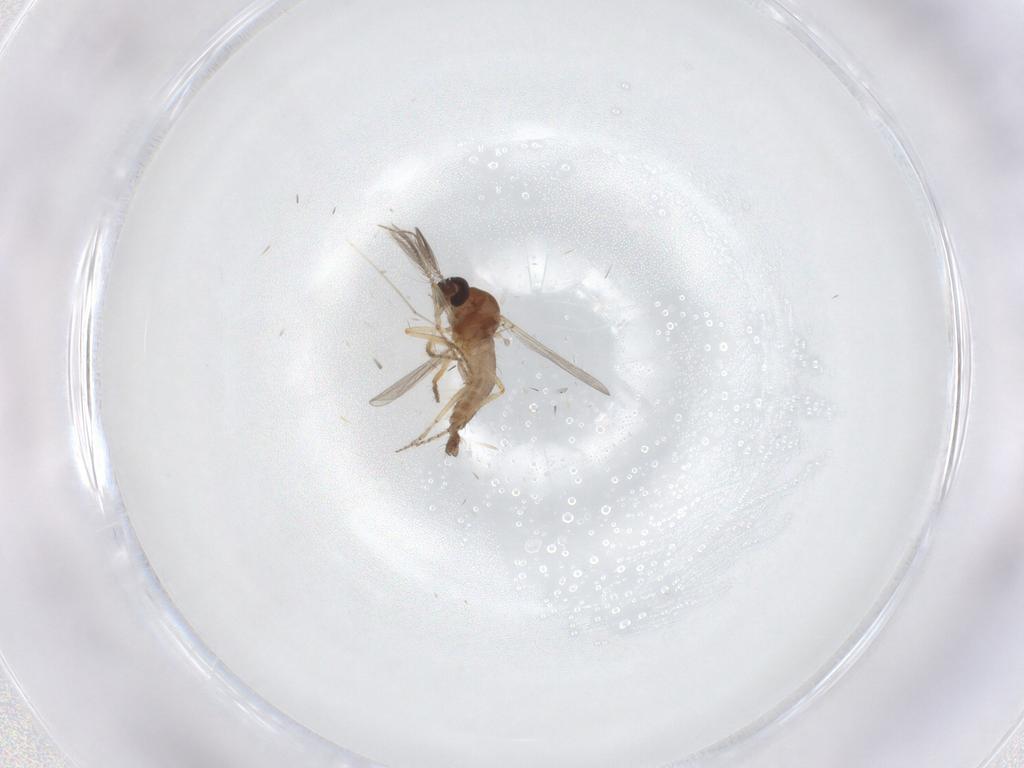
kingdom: Animalia
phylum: Arthropoda
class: Insecta
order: Diptera
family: Ceratopogonidae
